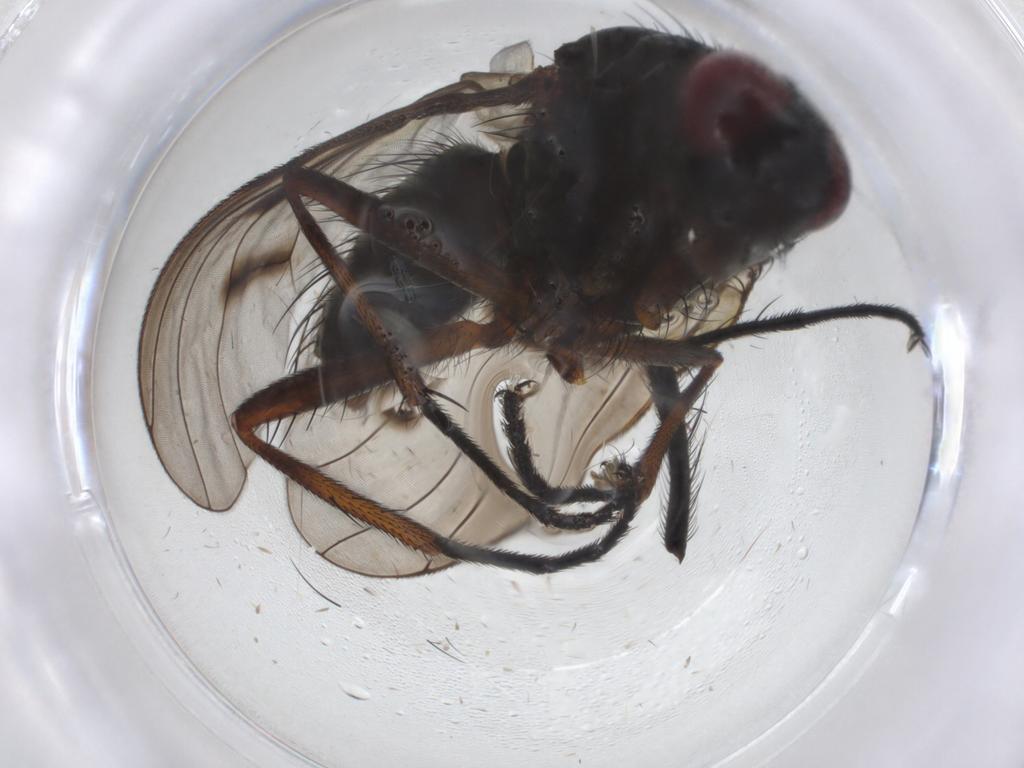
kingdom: Animalia
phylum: Arthropoda
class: Insecta
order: Diptera
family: Muscidae
